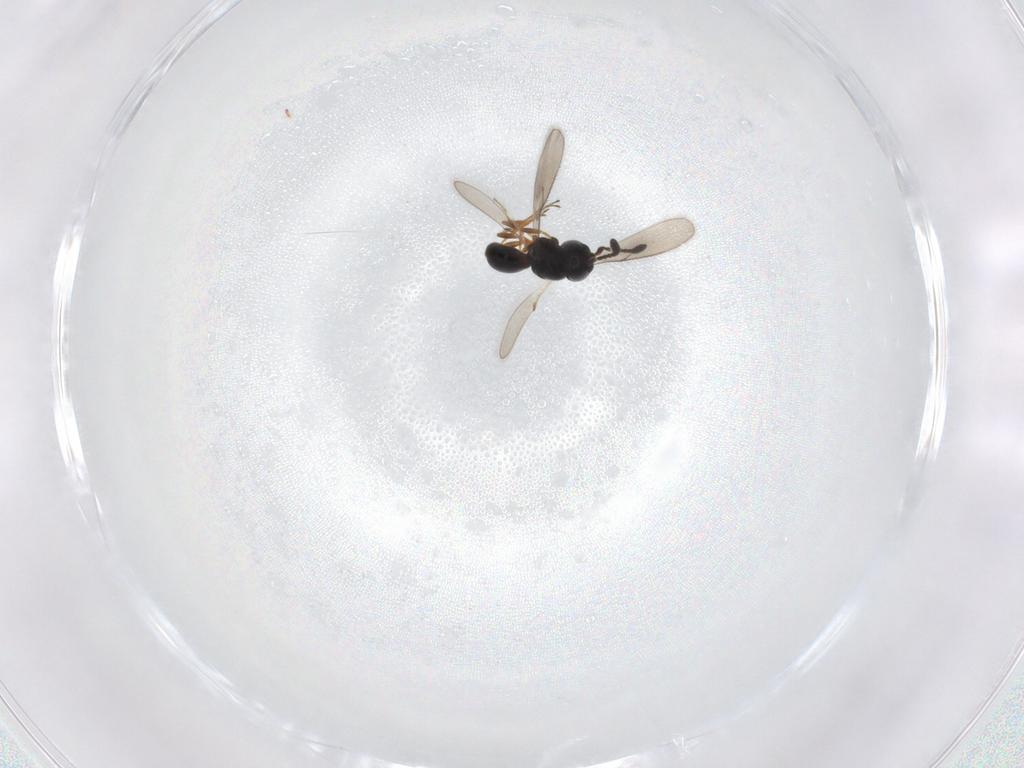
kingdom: Animalia
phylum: Arthropoda
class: Insecta
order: Hymenoptera
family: Scelionidae
